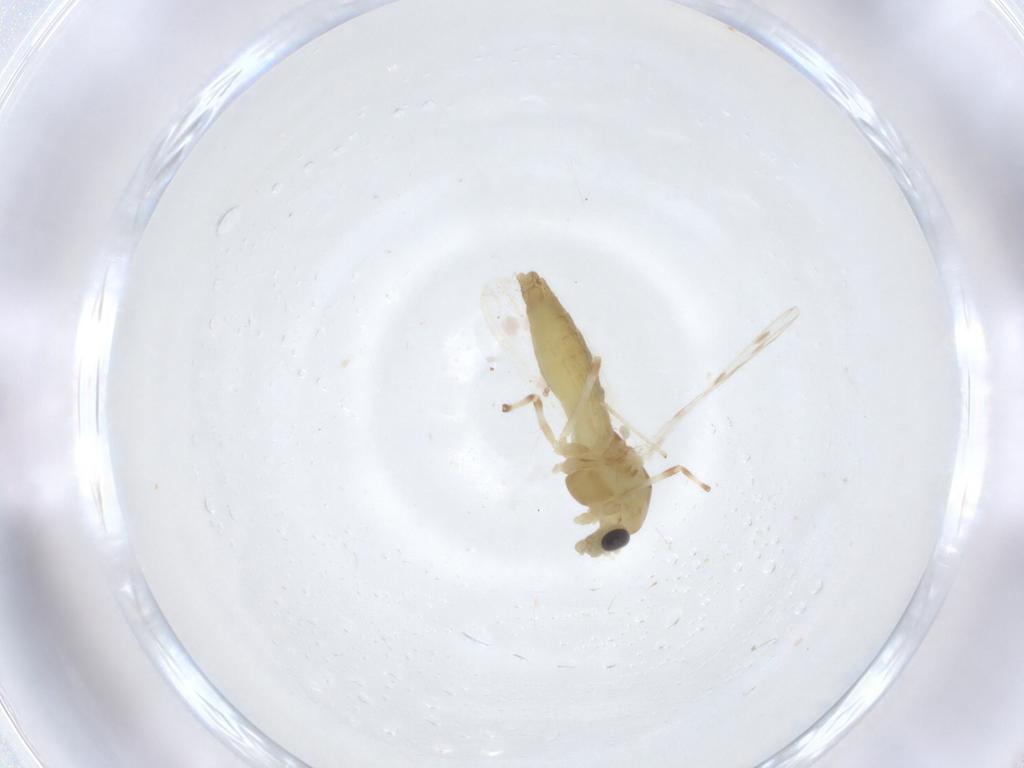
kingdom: Animalia
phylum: Arthropoda
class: Insecta
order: Diptera
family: Chironomidae
